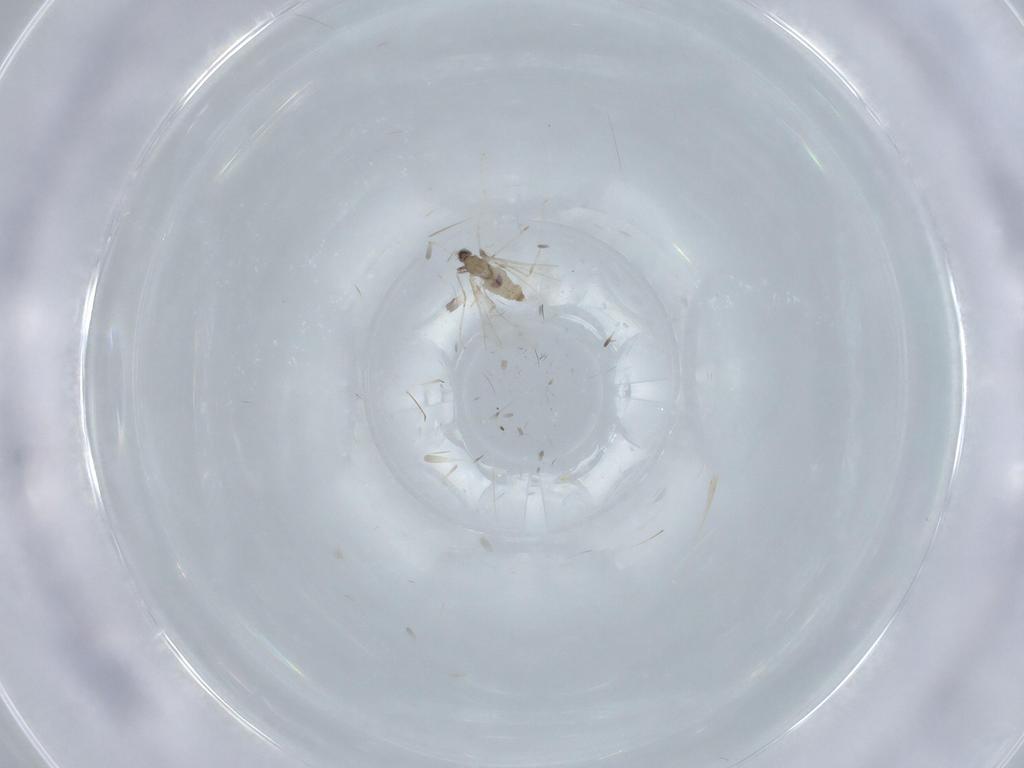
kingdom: Animalia
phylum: Arthropoda
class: Insecta
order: Diptera
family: Cecidomyiidae
